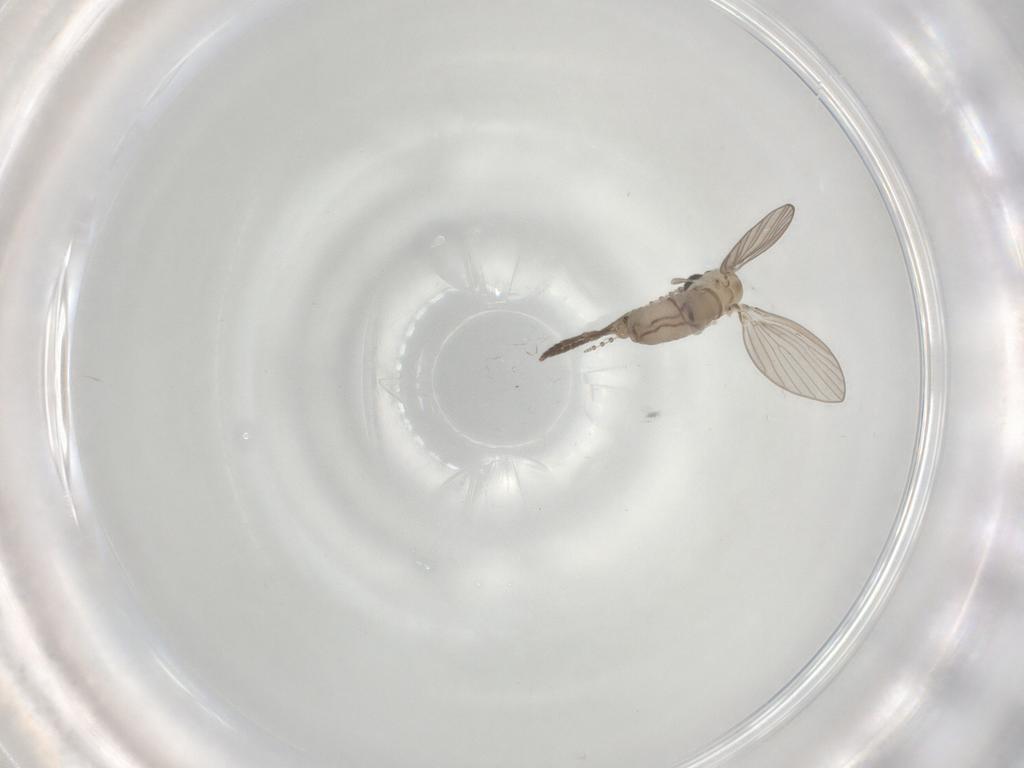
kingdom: Animalia
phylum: Arthropoda
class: Insecta
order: Diptera
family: Psychodidae
